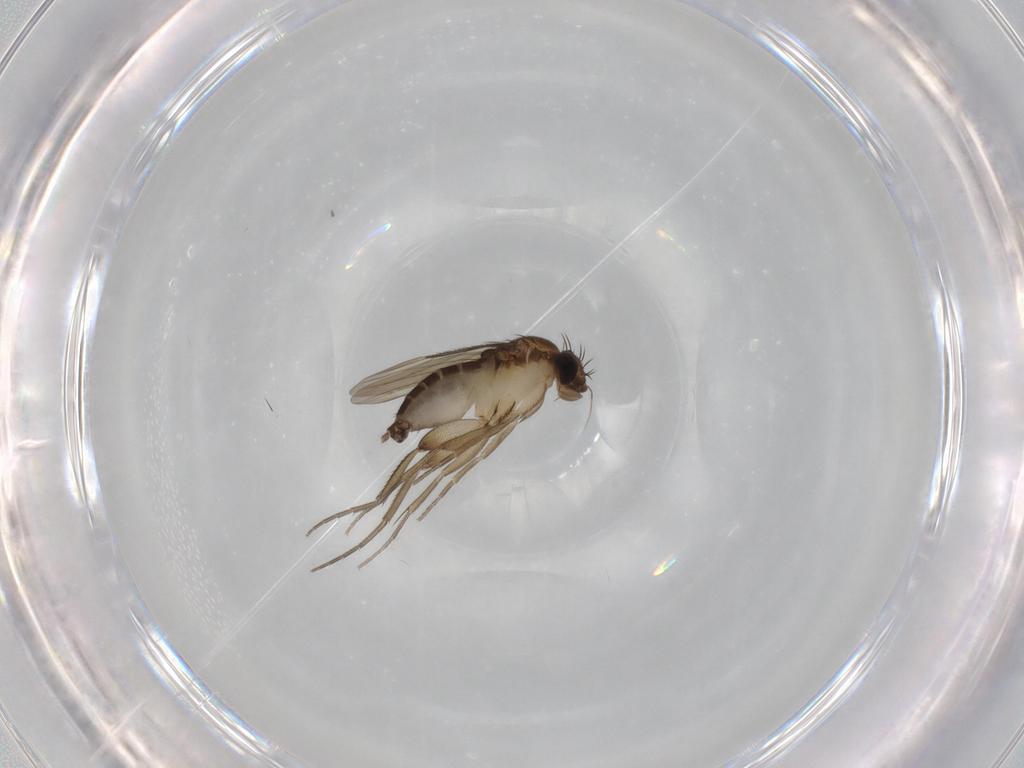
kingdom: Animalia
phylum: Arthropoda
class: Insecta
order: Diptera
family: Phoridae
